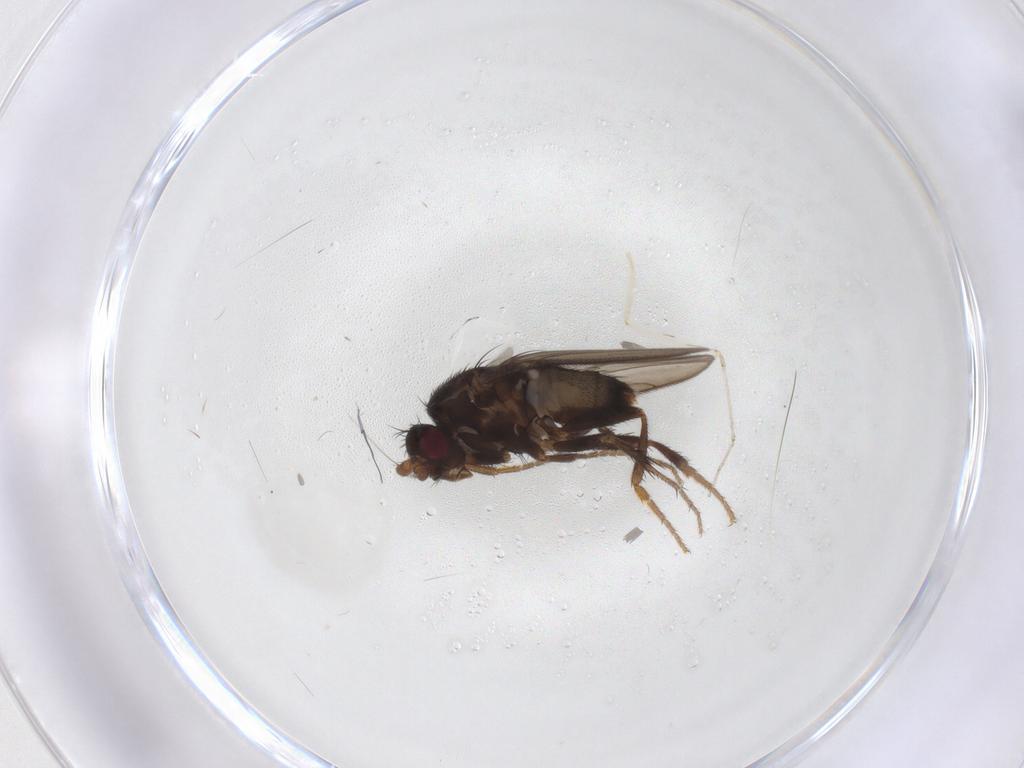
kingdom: Animalia
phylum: Arthropoda
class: Insecta
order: Diptera
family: Sphaeroceridae
